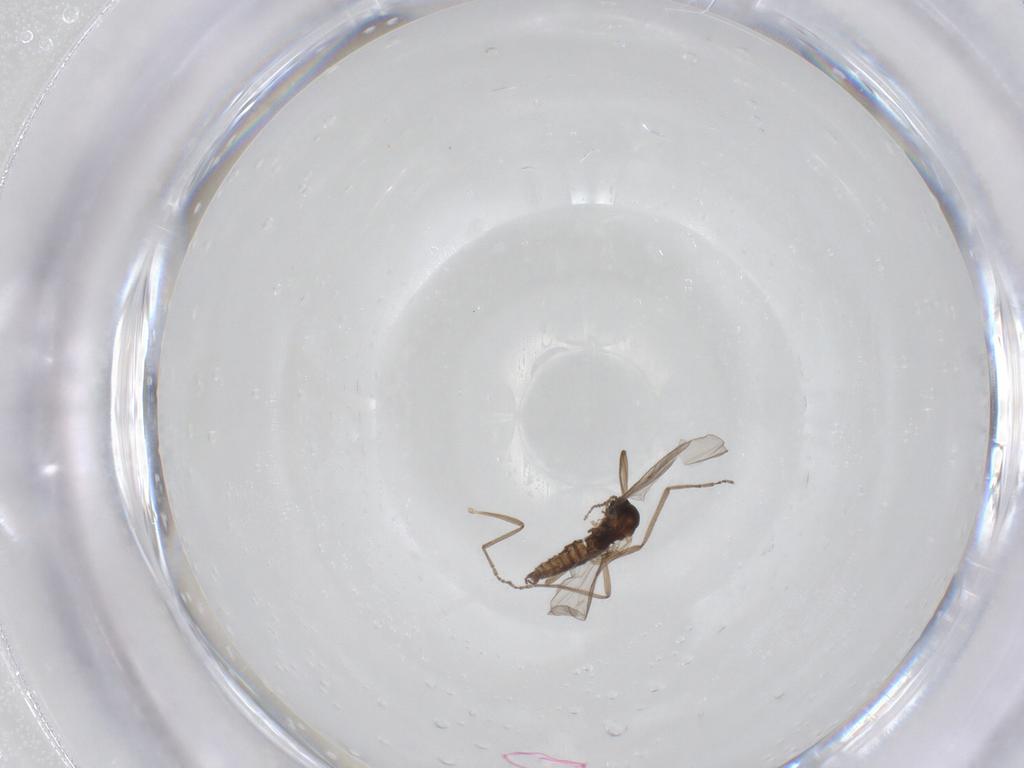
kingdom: Animalia
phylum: Arthropoda
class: Insecta
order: Diptera
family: Cecidomyiidae
